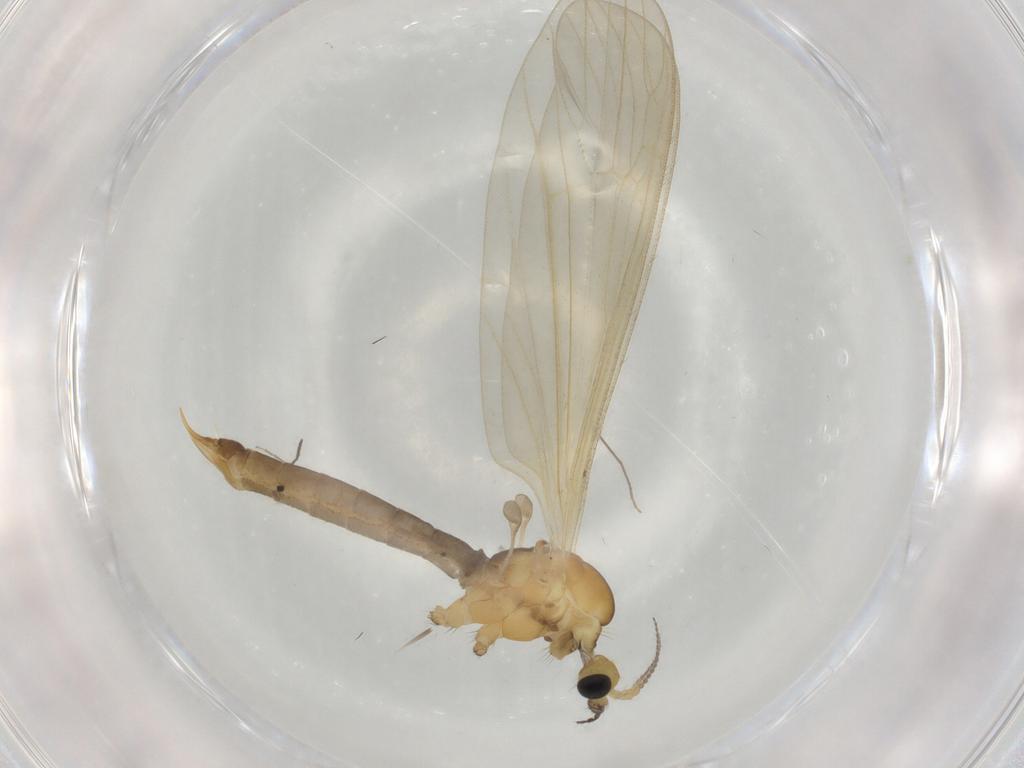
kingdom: Animalia
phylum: Arthropoda
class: Insecta
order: Diptera
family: Limoniidae
